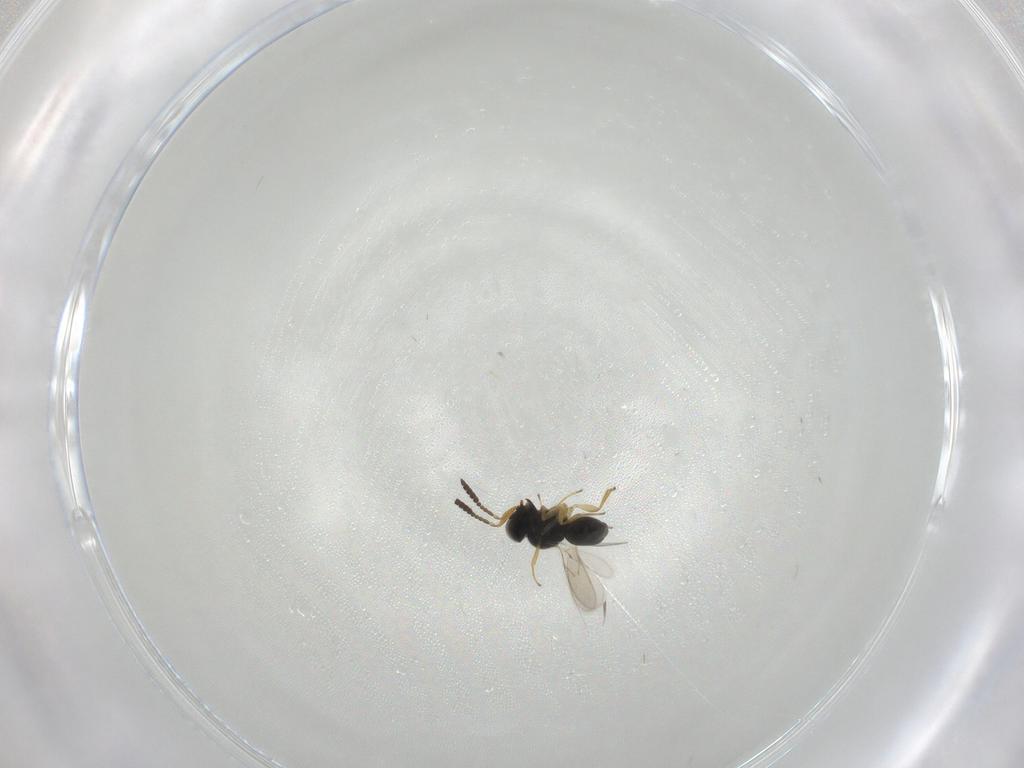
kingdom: Animalia
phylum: Arthropoda
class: Insecta
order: Hymenoptera
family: Scelionidae
